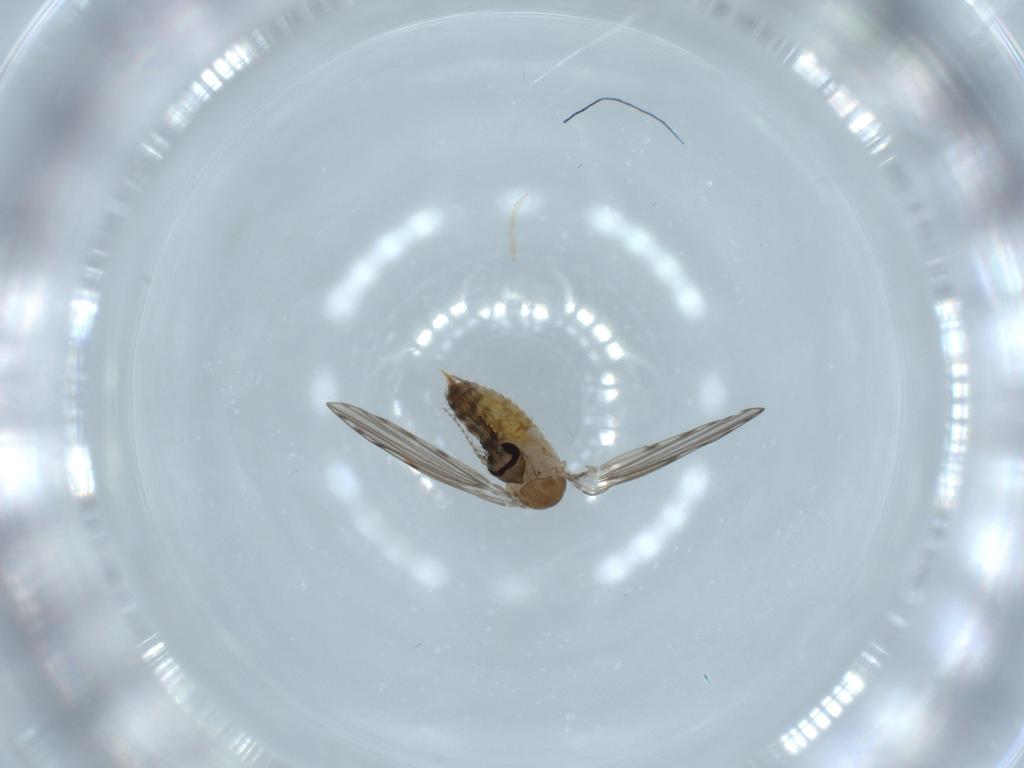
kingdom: Animalia
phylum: Arthropoda
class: Insecta
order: Diptera
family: Psychodidae
